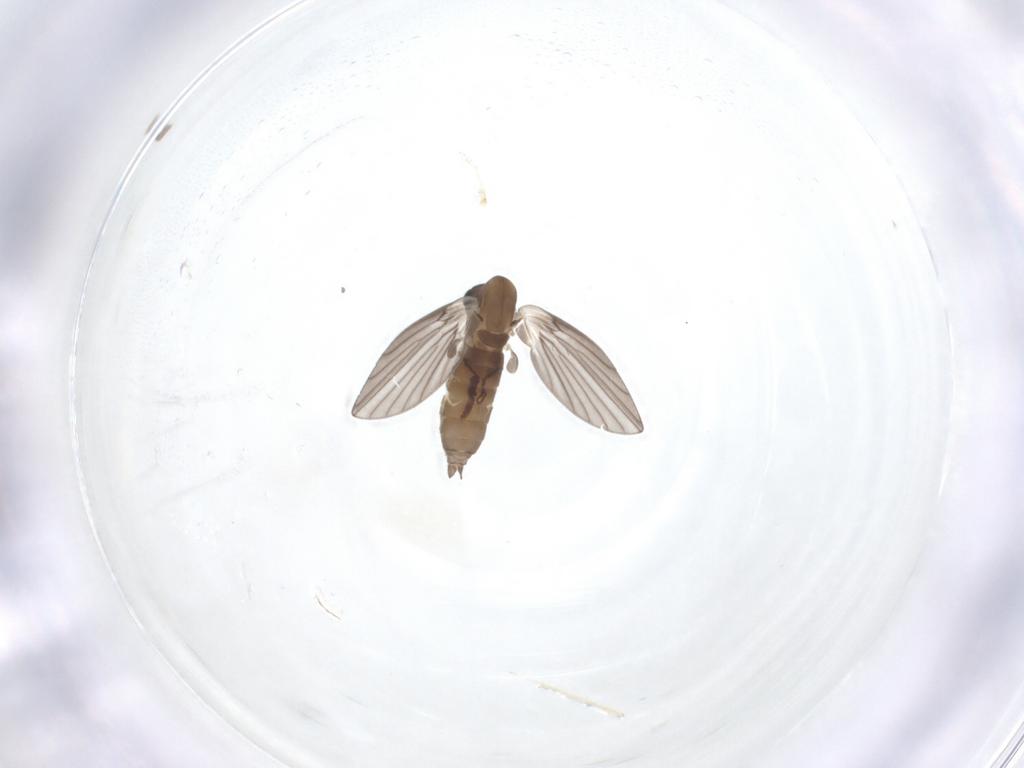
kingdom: Animalia
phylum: Arthropoda
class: Insecta
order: Diptera
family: Psychodidae
